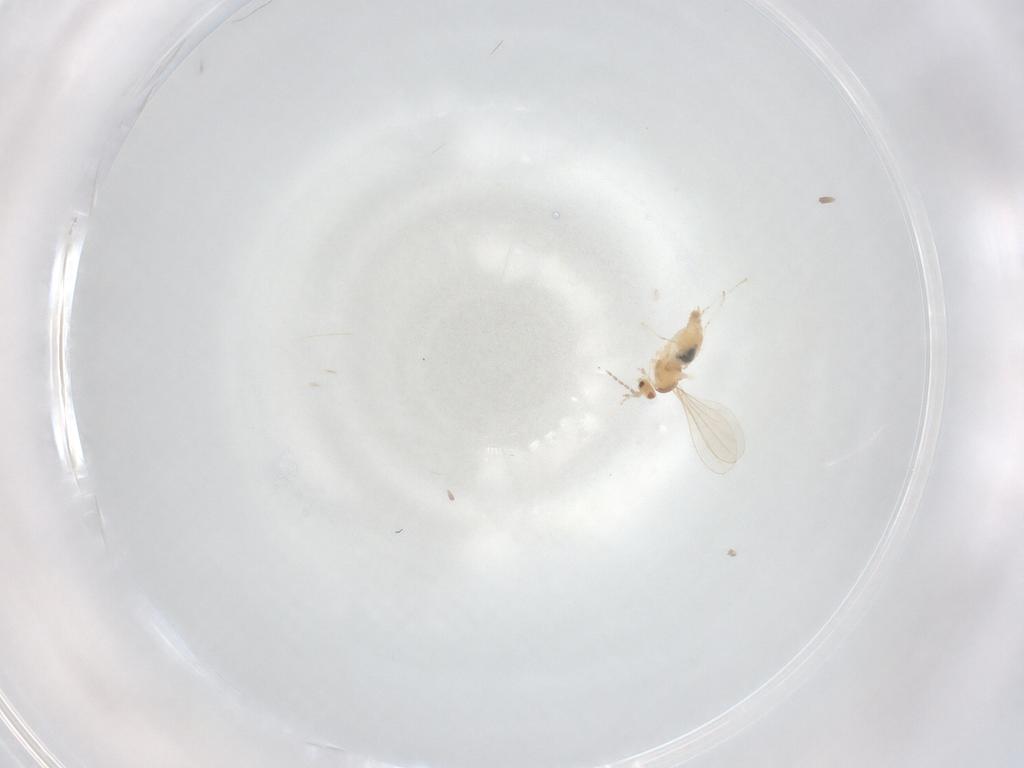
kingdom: Animalia
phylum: Arthropoda
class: Insecta
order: Diptera
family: Cecidomyiidae
